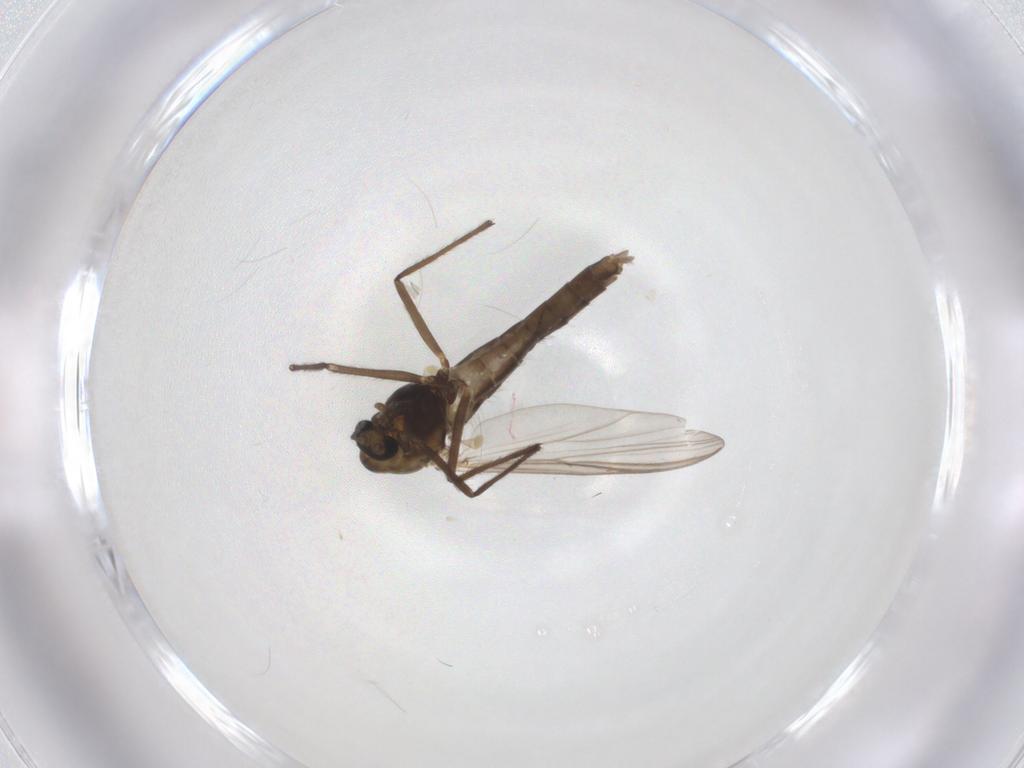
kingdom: Animalia
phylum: Arthropoda
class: Insecta
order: Diptera
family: Chironomidae
